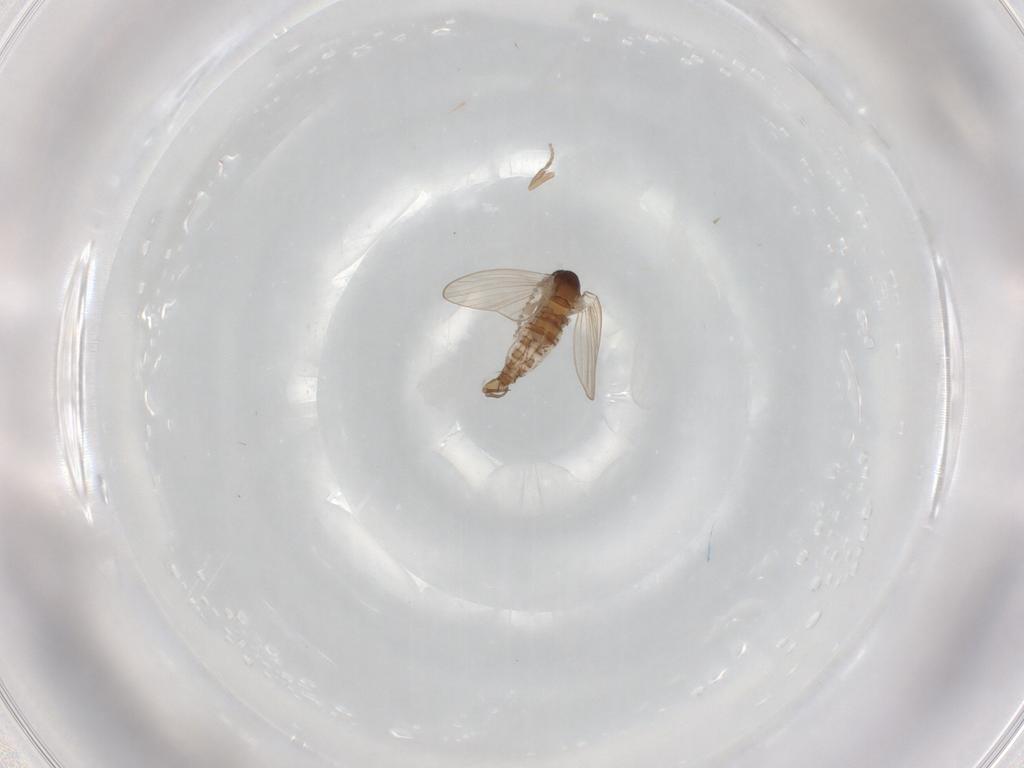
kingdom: Animalia
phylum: Arthropoda
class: Insecta
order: Diptera
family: Psychodidae
